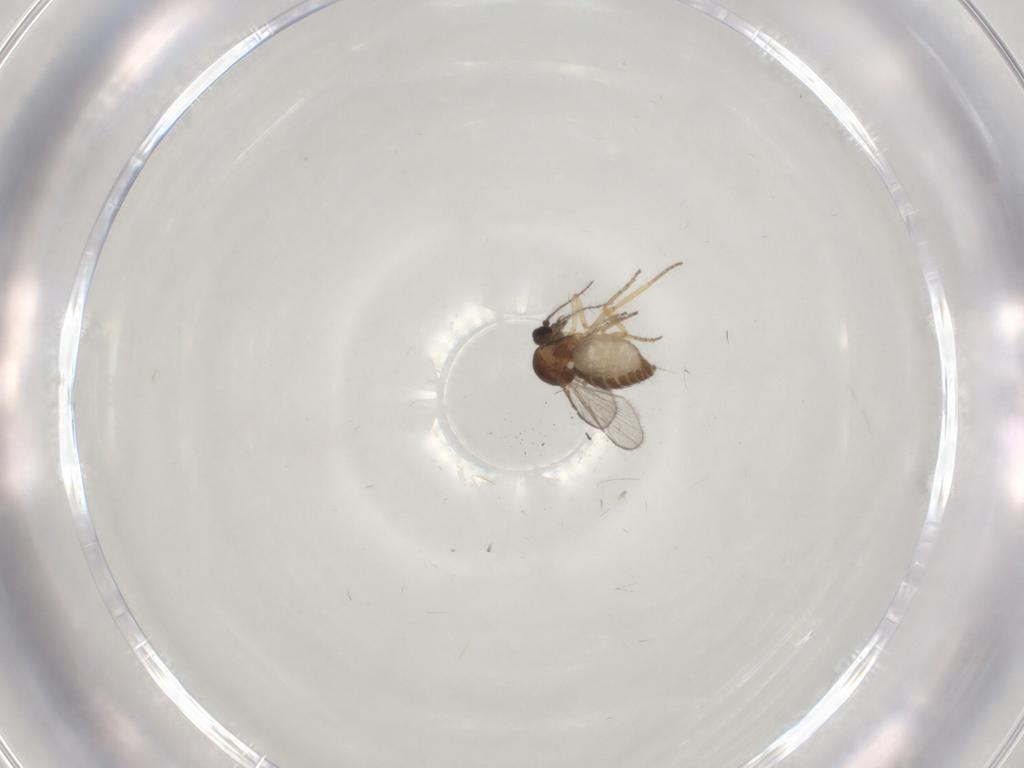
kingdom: Animalia
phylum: Arthropoda
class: Insecta
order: Diptera
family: Ceratopogonidae
